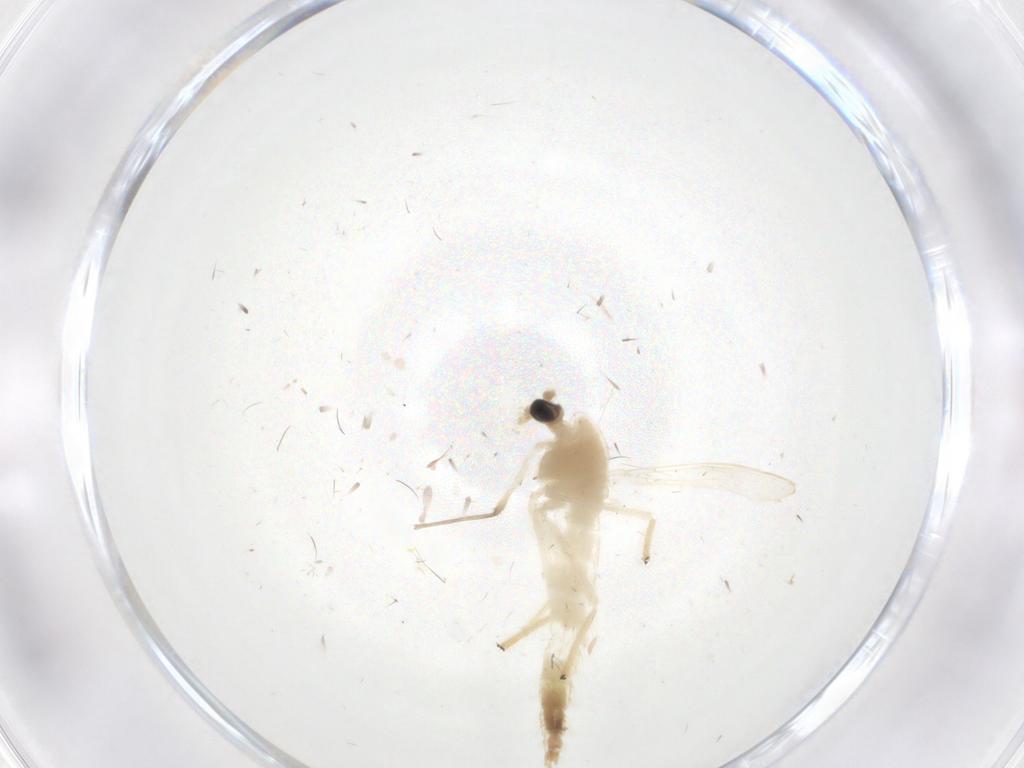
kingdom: Animalia
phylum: Arthropoda
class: Insecta
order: Diptera
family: Chironomidae
